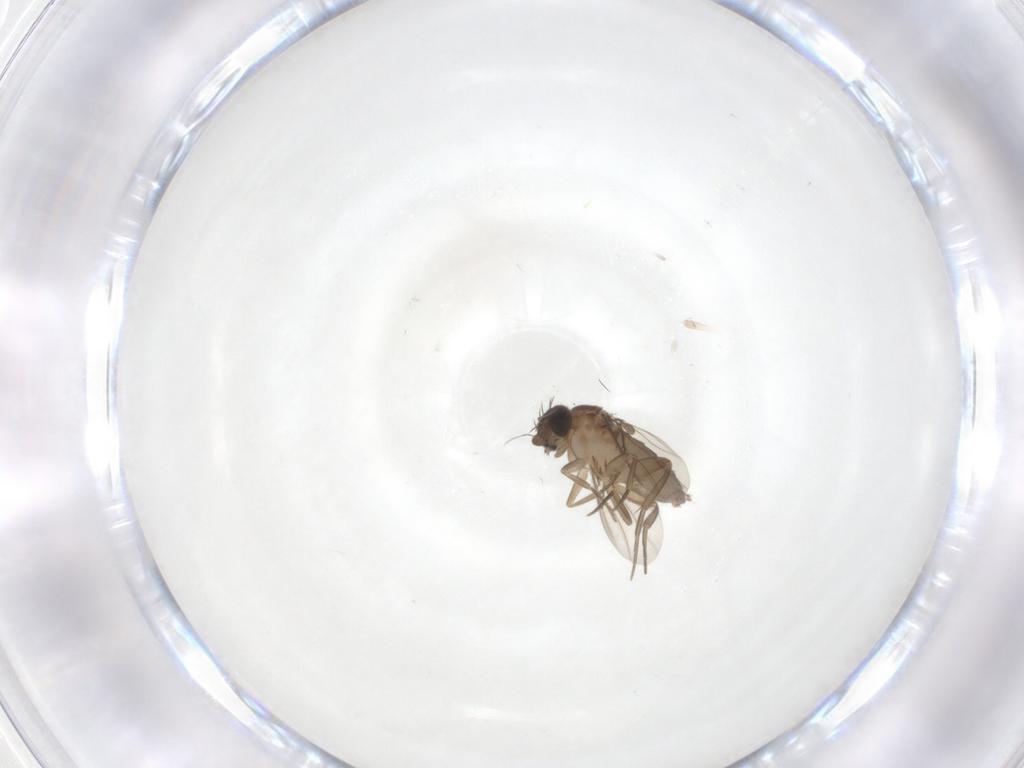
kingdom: Animalia
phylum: Arthropoda
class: Insecta
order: Diptera
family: Phoridae
